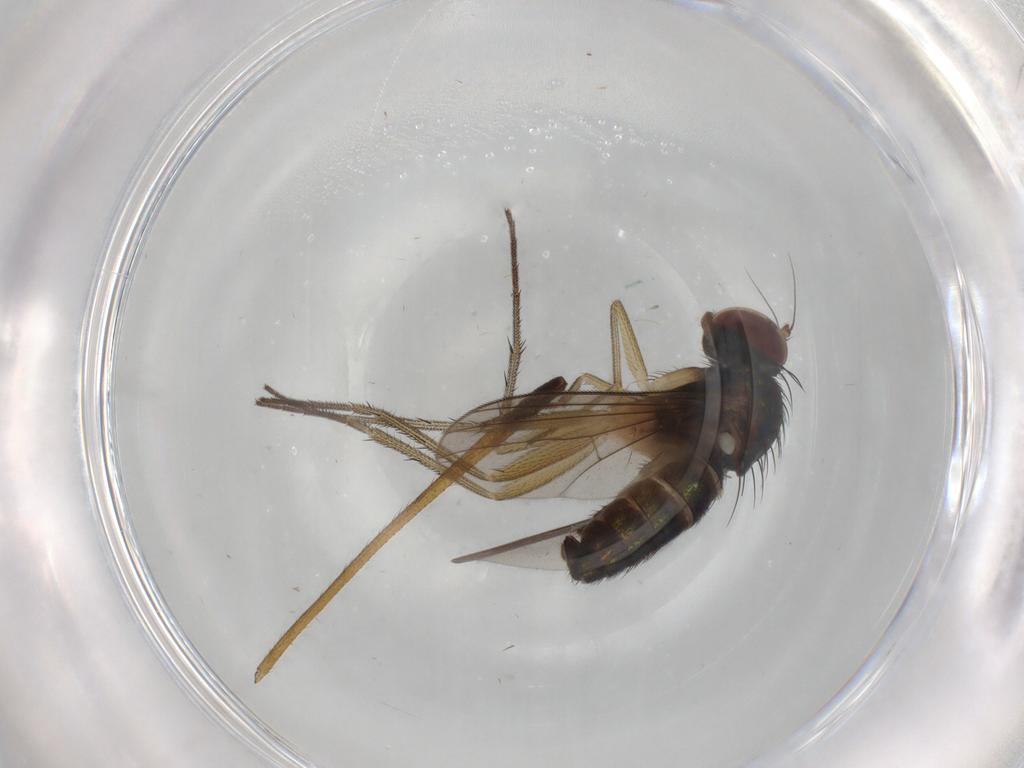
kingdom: Animalia
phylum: Arthropoda
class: Insecta
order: Diptera
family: Dolichopodidae
